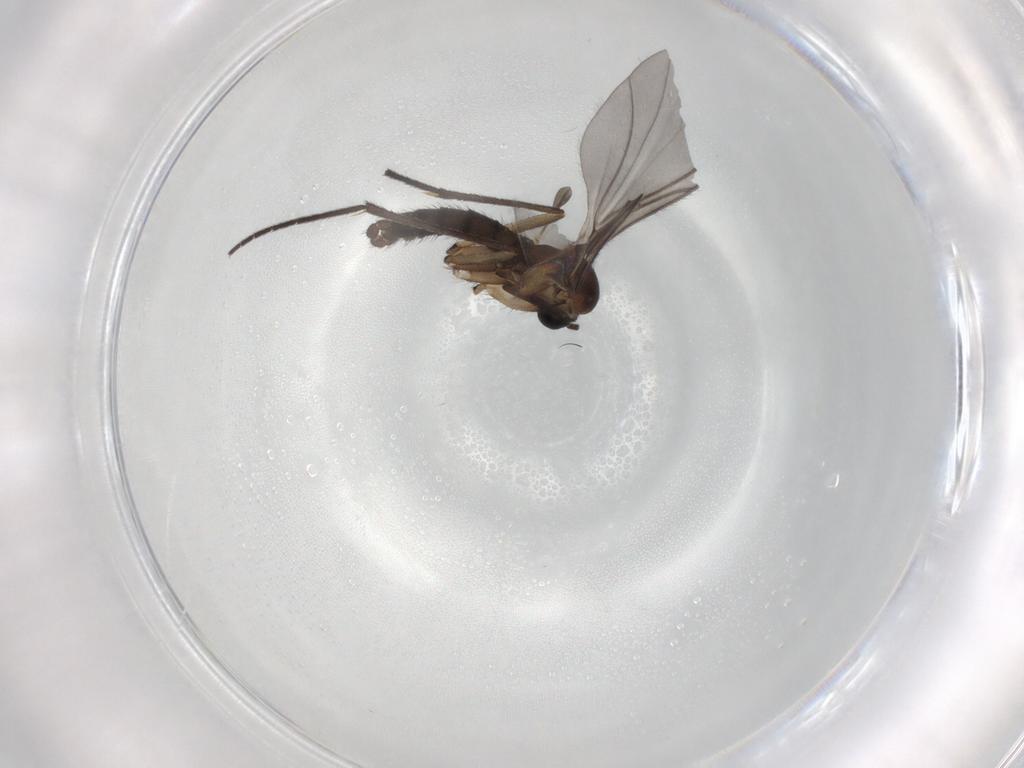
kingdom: Animalia
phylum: Arthropoda
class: Insecta
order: Diptera
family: Sciaridae
